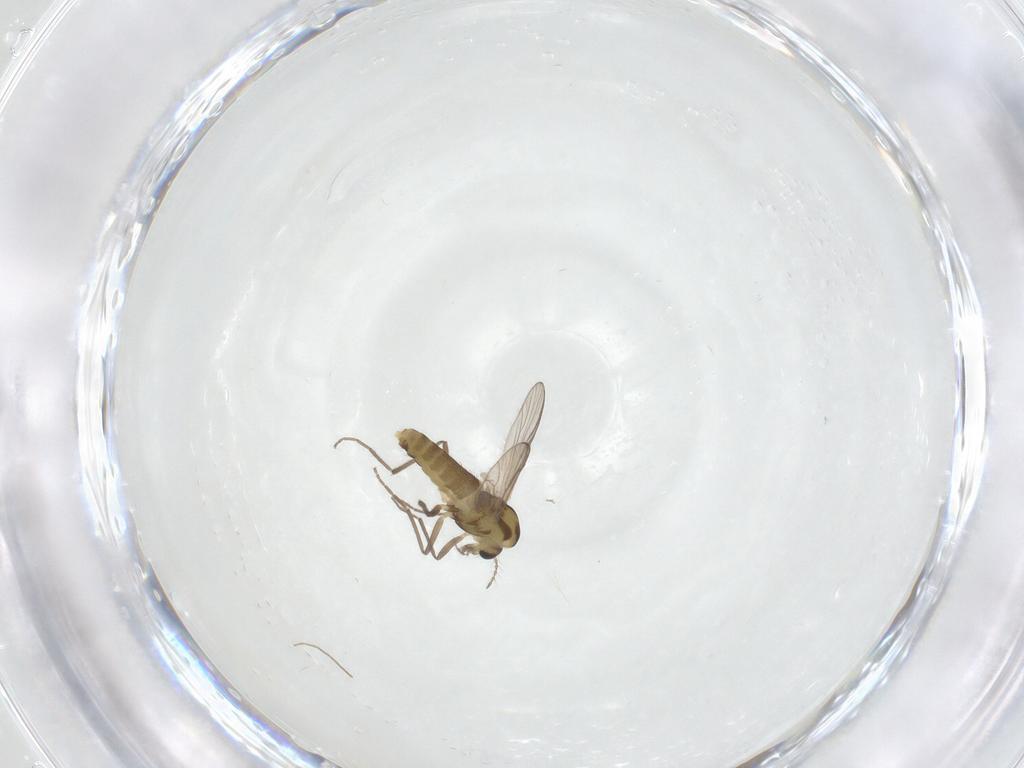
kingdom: Animalia
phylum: Arthropoda
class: Insecta
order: Diptera
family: Chironomidae
